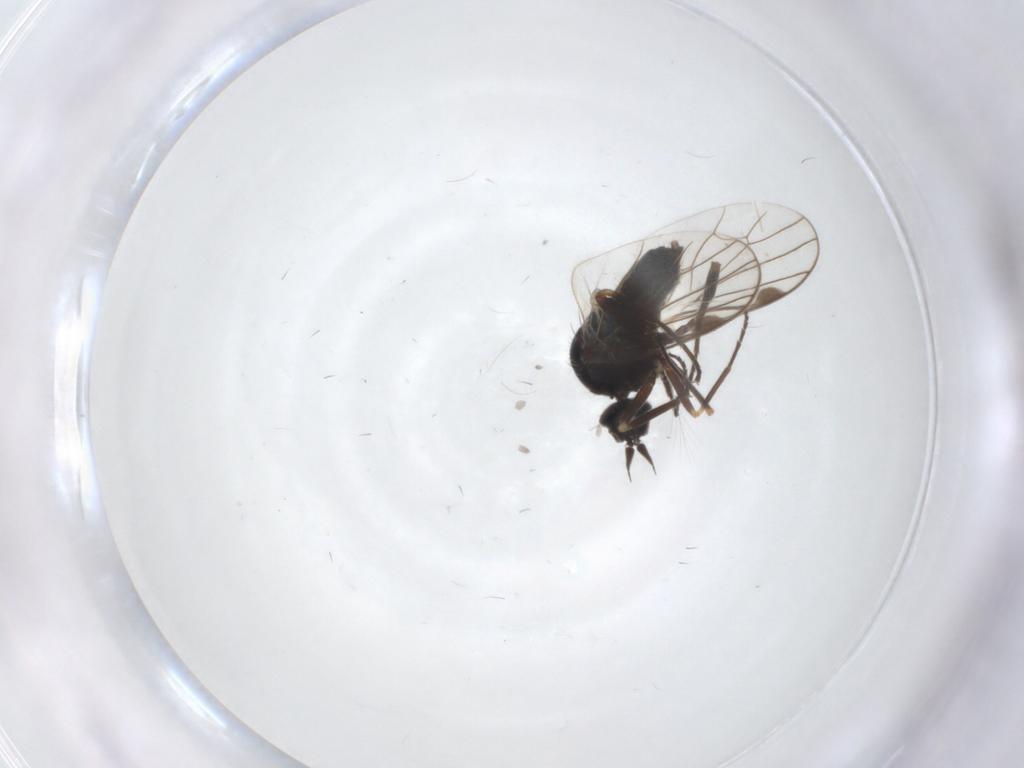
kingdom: Animalia
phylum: Arthropoda
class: Insecta
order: Diptera
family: Muscidae
